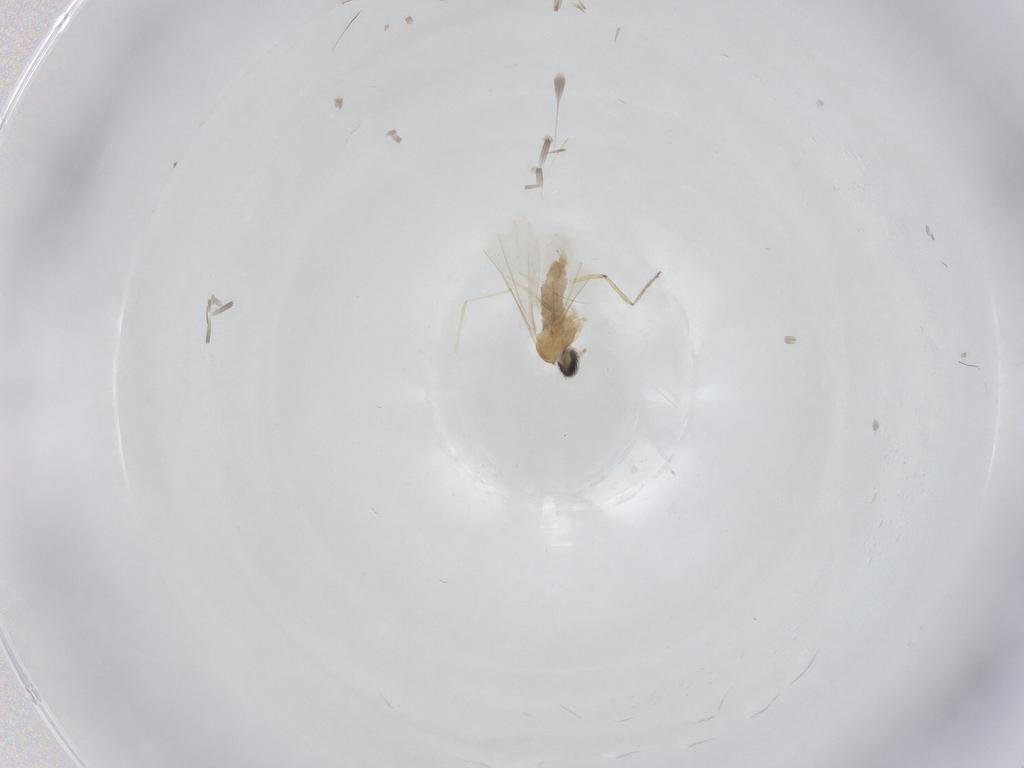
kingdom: Animalia
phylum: Arthropoda
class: Insecta
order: Diptera
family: Cecidomyiidae
